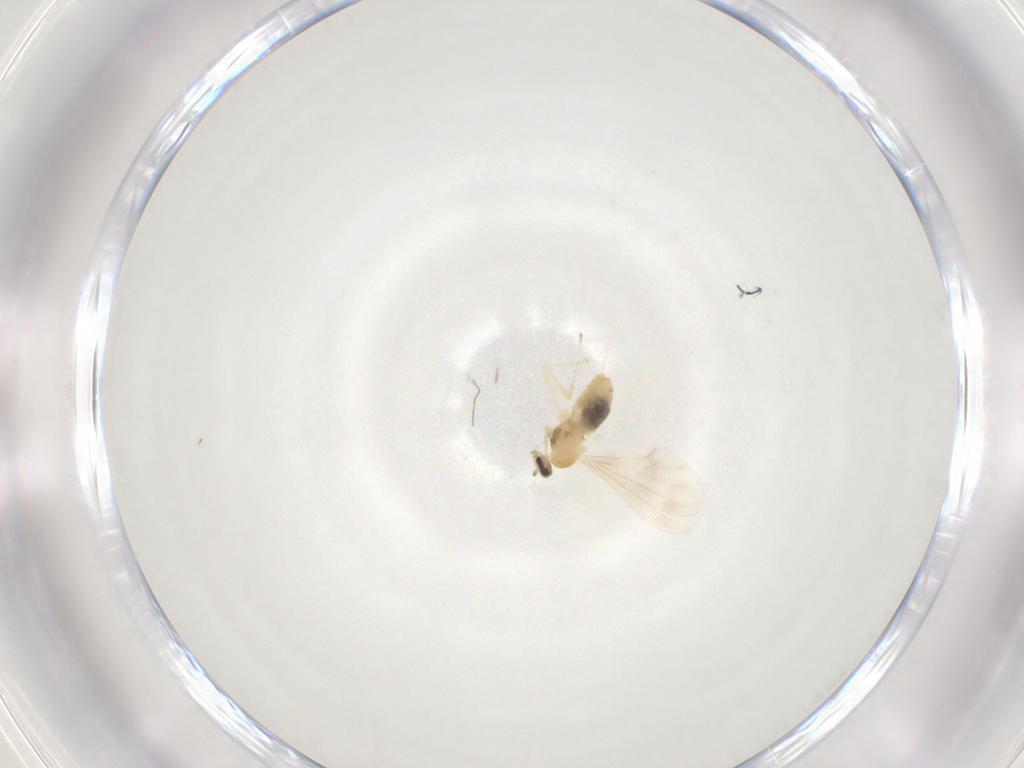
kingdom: Animalia
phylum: Arthropoda
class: Insecta
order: Diptera
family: Cecidomyiidae
